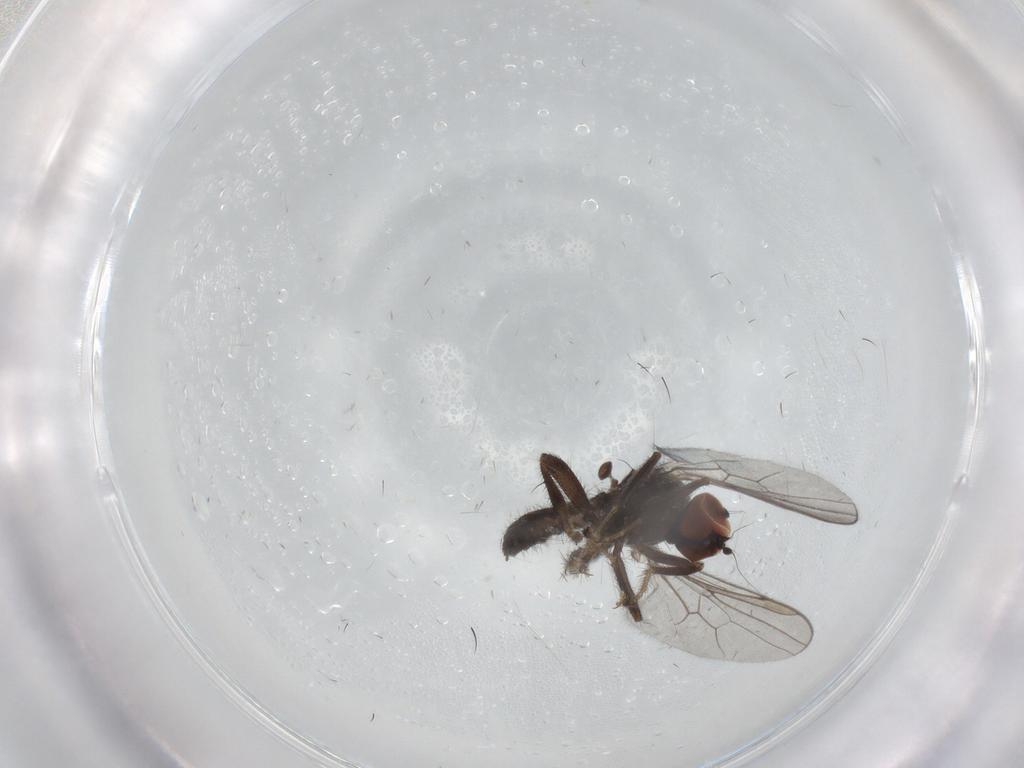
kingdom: Animalia
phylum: Arthropoda
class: Insecta
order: Diptera
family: Hybotidae
